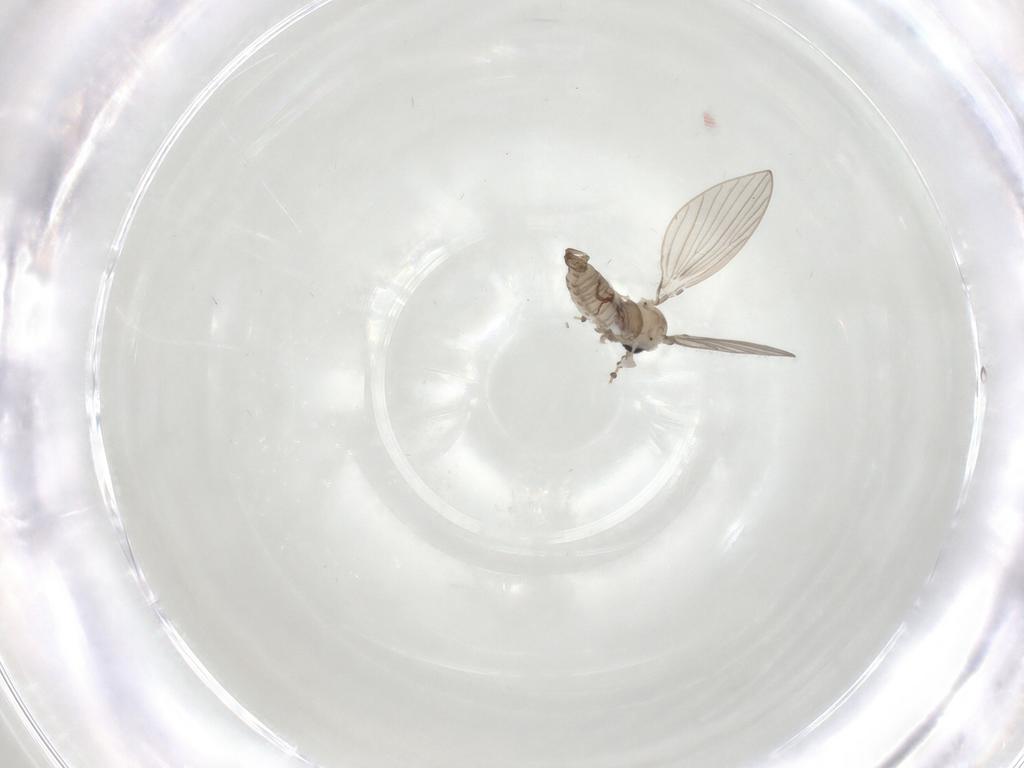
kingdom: Animalia
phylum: Arthropoda
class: Insecta
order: Diptera
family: Psychodidae
